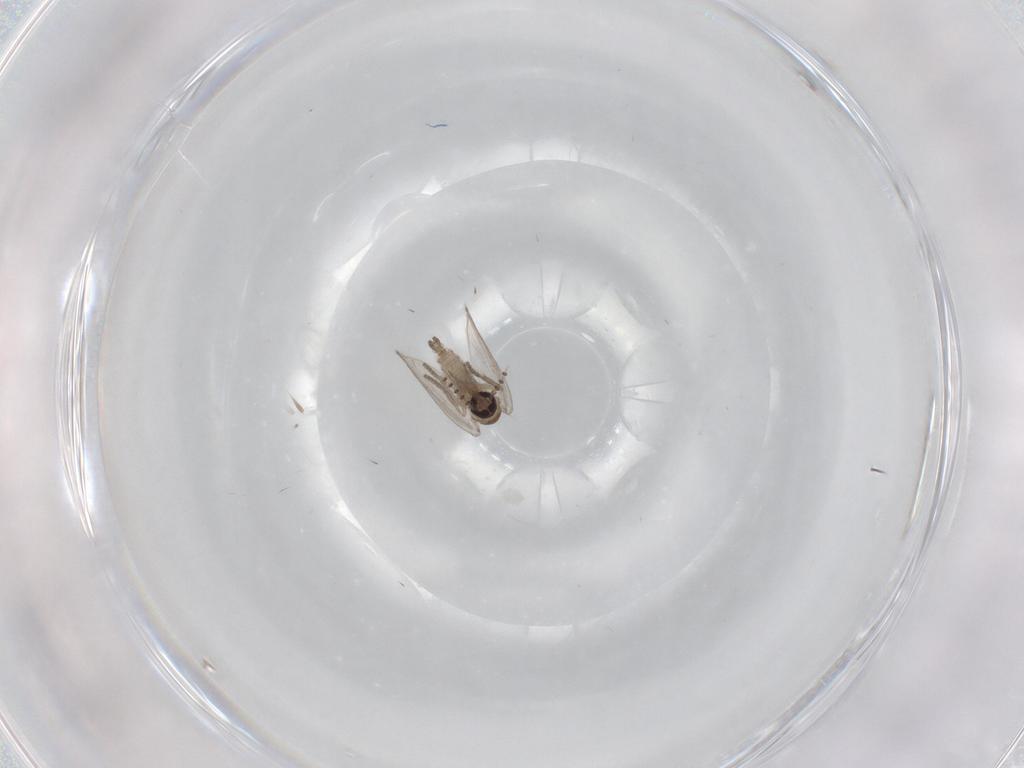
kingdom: Animalia
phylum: Arthropoda
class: Insecta
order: Diptera
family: Psychodidae
